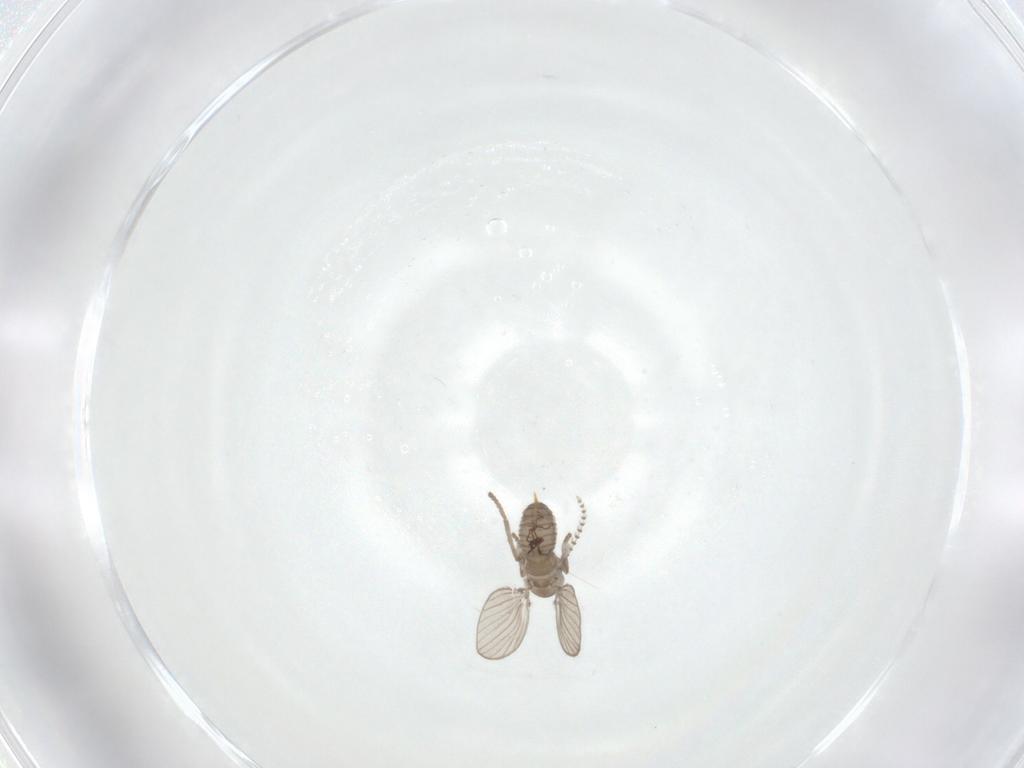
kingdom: Animalia
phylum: Arthropoda
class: Insecta
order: Diptera
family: Psychodidae
